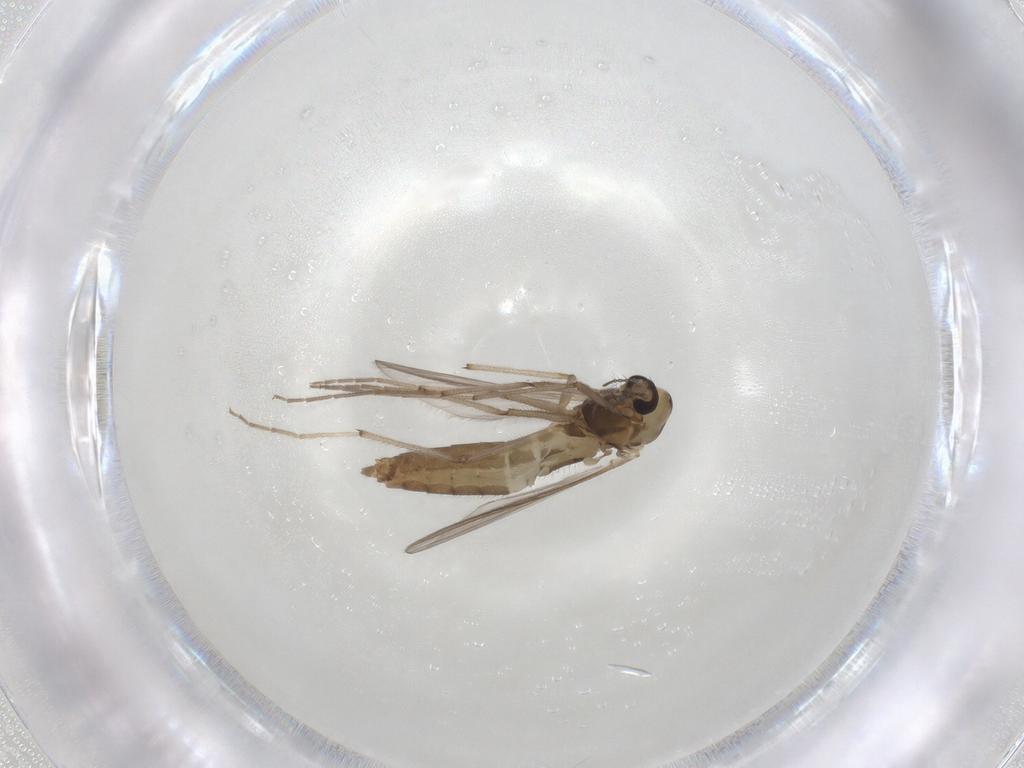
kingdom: Animalia
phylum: Arthropoda
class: Insecta
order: Diptera
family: Chironomidae
